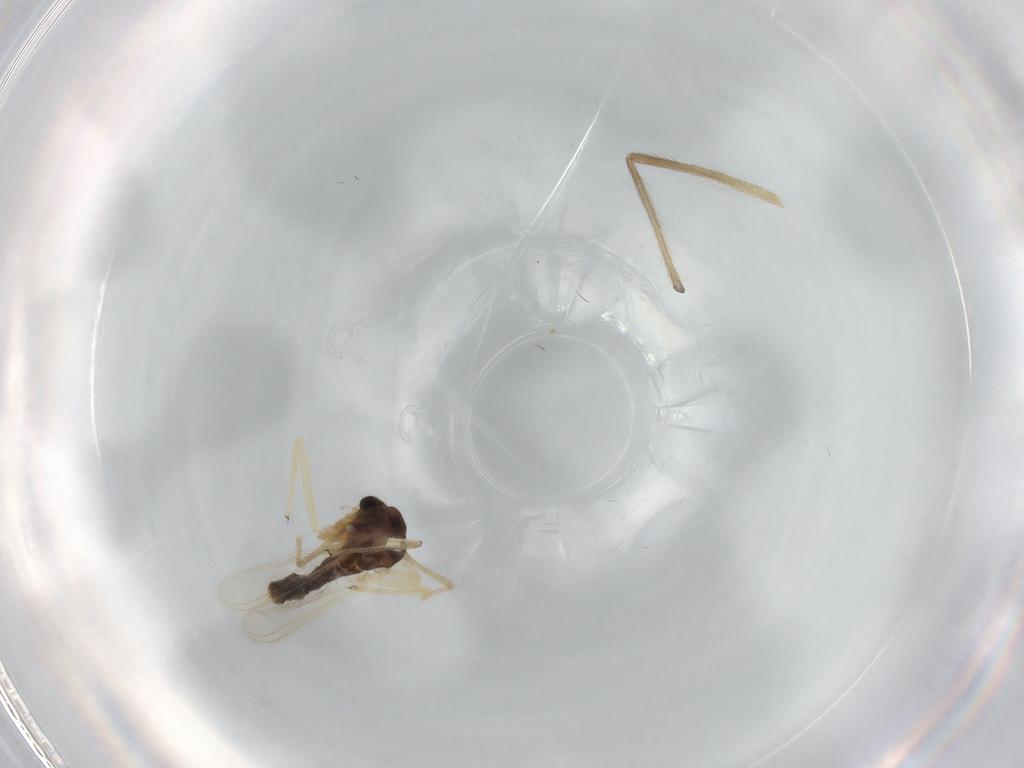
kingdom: Animalia
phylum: Arthropoda
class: Insecta
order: Diptera
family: Chironomidae
